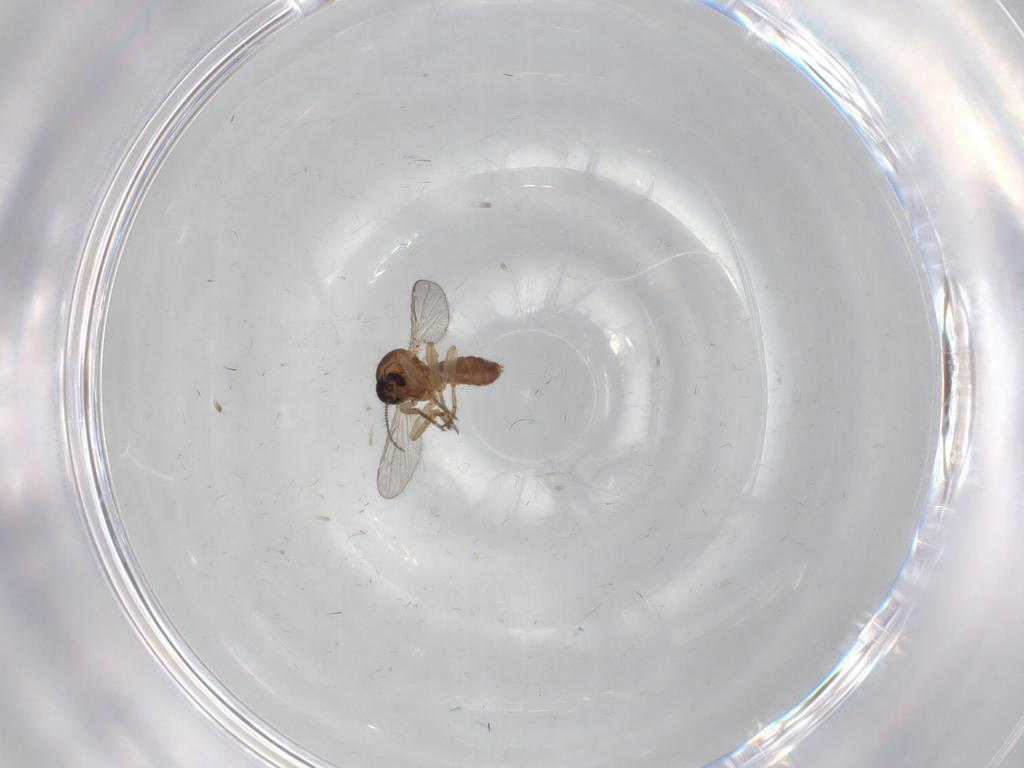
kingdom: Animalia
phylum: Arthropoda
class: Insecta
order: Diptera
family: Ceratopogonidae
